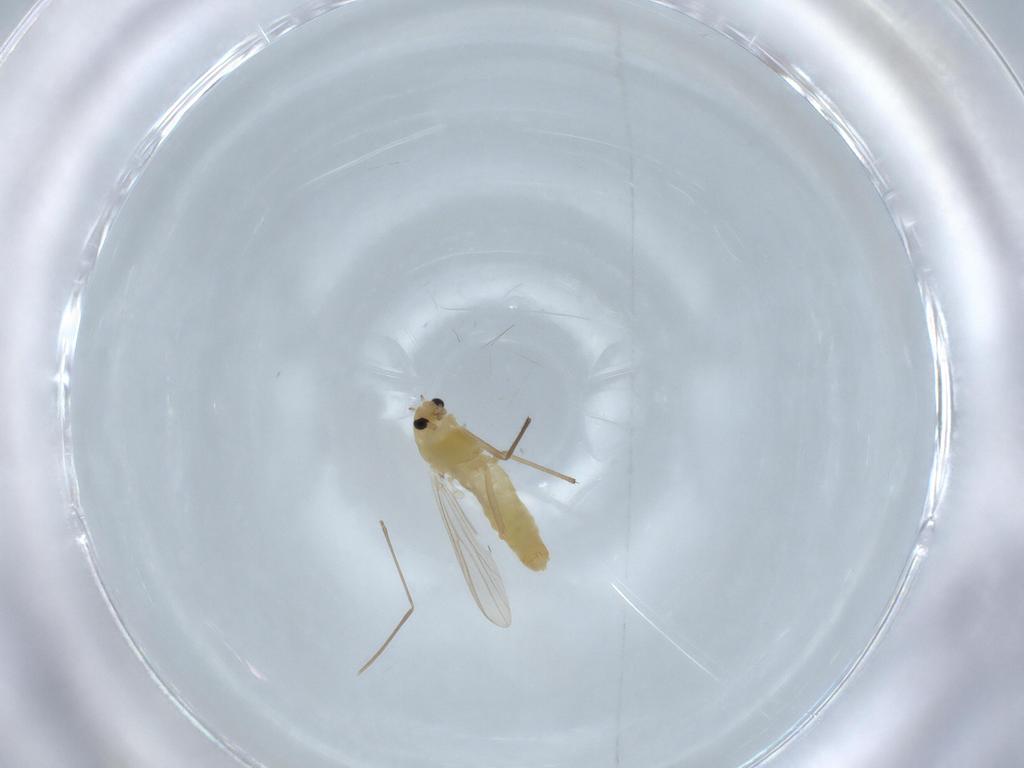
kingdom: Animalia
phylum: Arthropoda
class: Insecta
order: Diptera
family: Chironomidae
